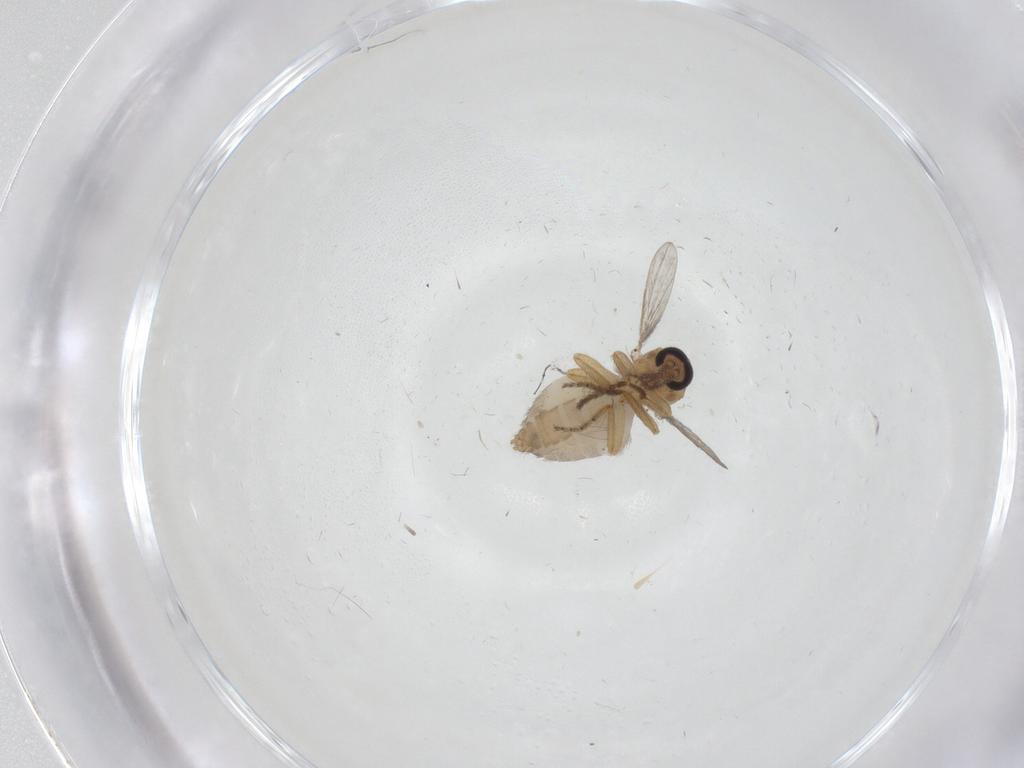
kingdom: Animalia
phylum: Arthropoda
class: Insecta
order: Diptera
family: Ceratopogonidae
